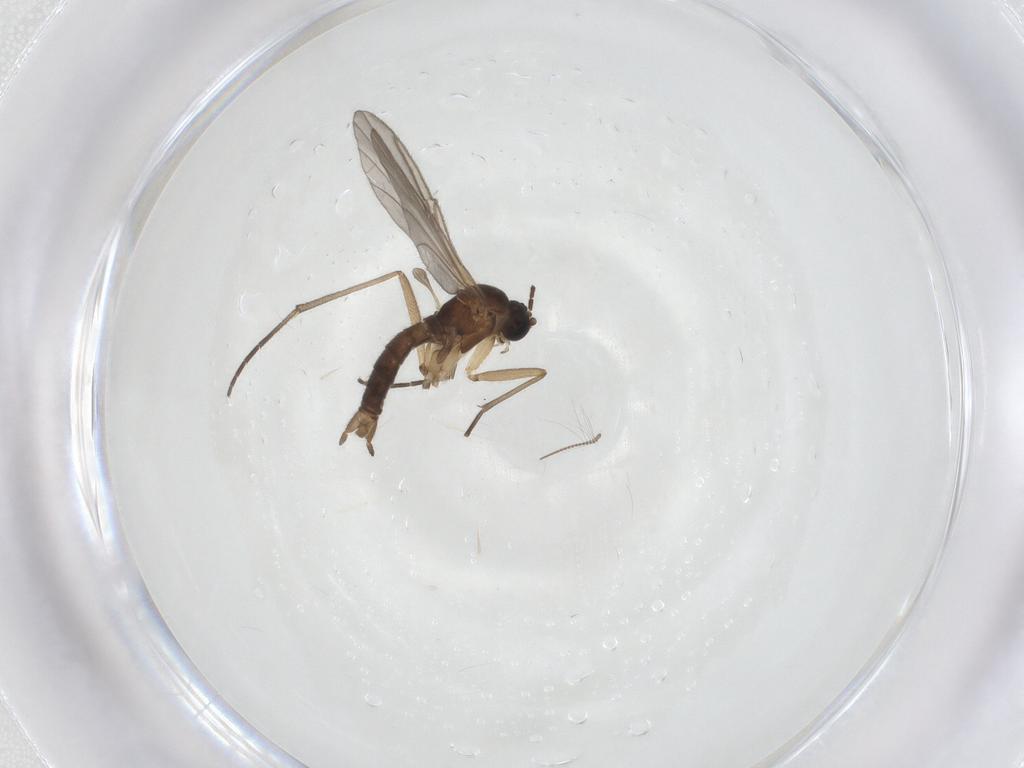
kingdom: Animalia
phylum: Arthropoda
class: Insecta
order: Diptera
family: Sciaridae
